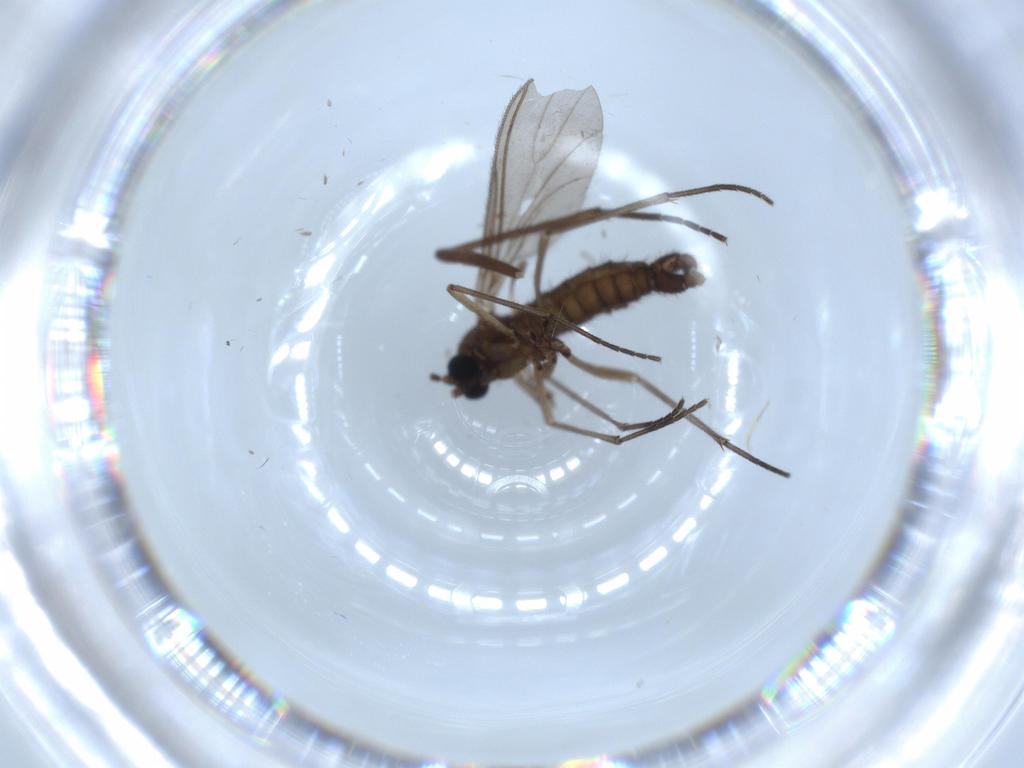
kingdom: Animalia
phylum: Arthropoda
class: Insecta
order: Diptera
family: Sciaridae
